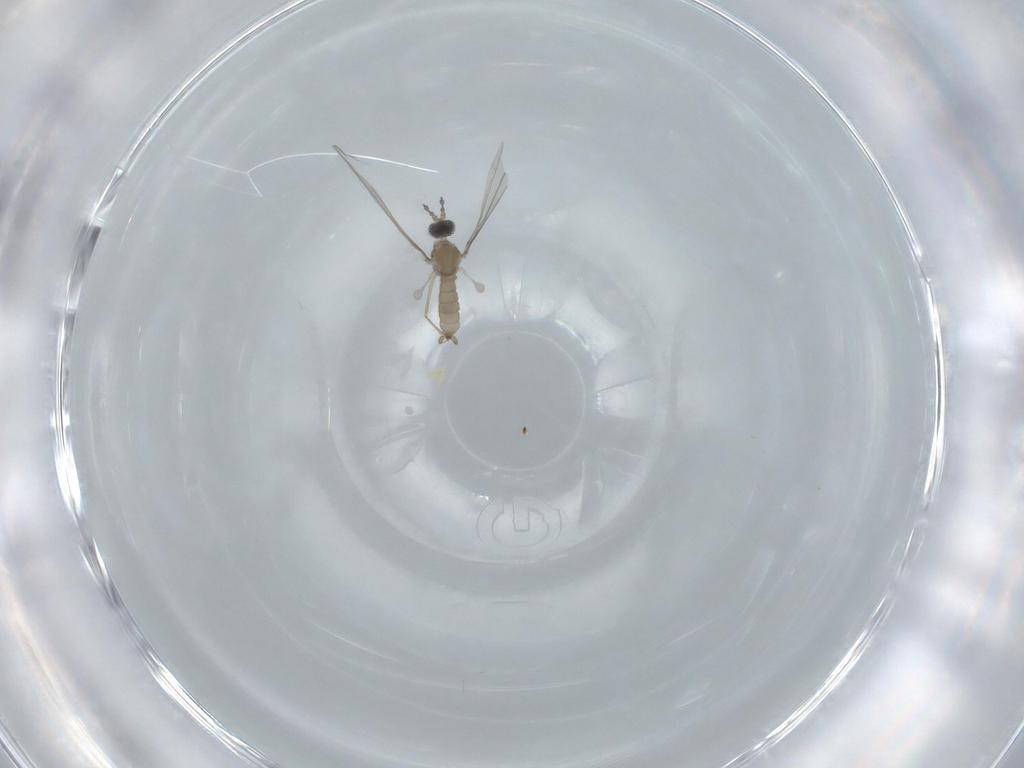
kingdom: Animalia
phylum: Arthropoda
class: Insecta
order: Diptera
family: Cecidomyiidae
